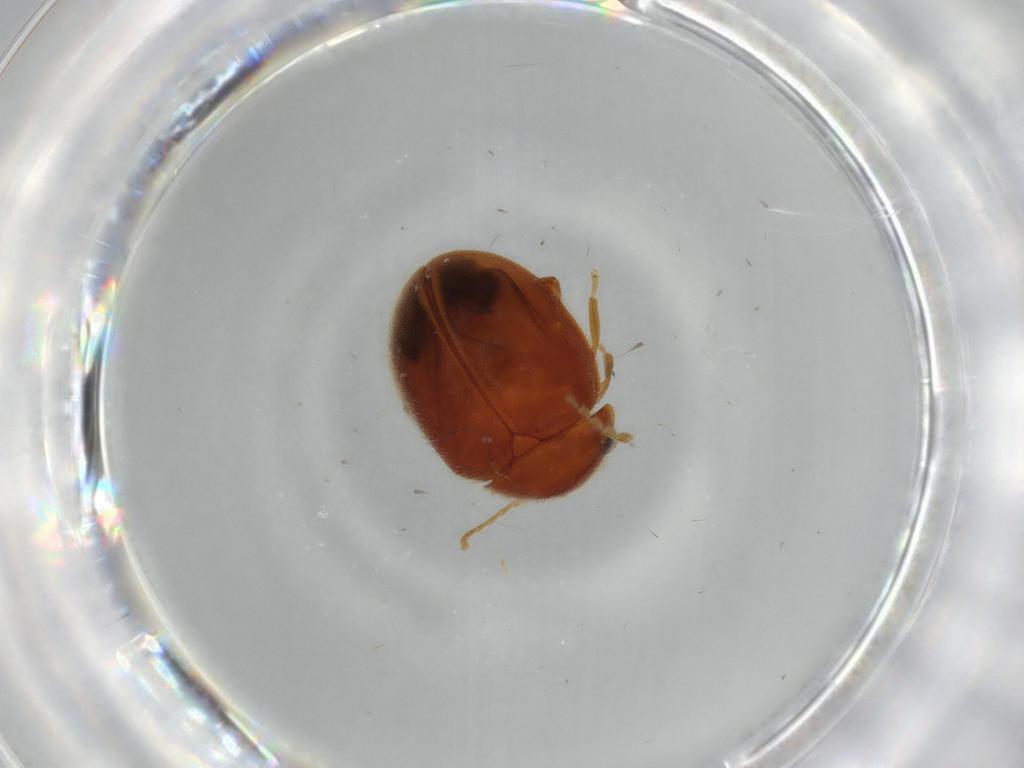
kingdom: Animalia
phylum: Arthropoda
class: Insecta
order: Coleoptera
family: Scirtidae
